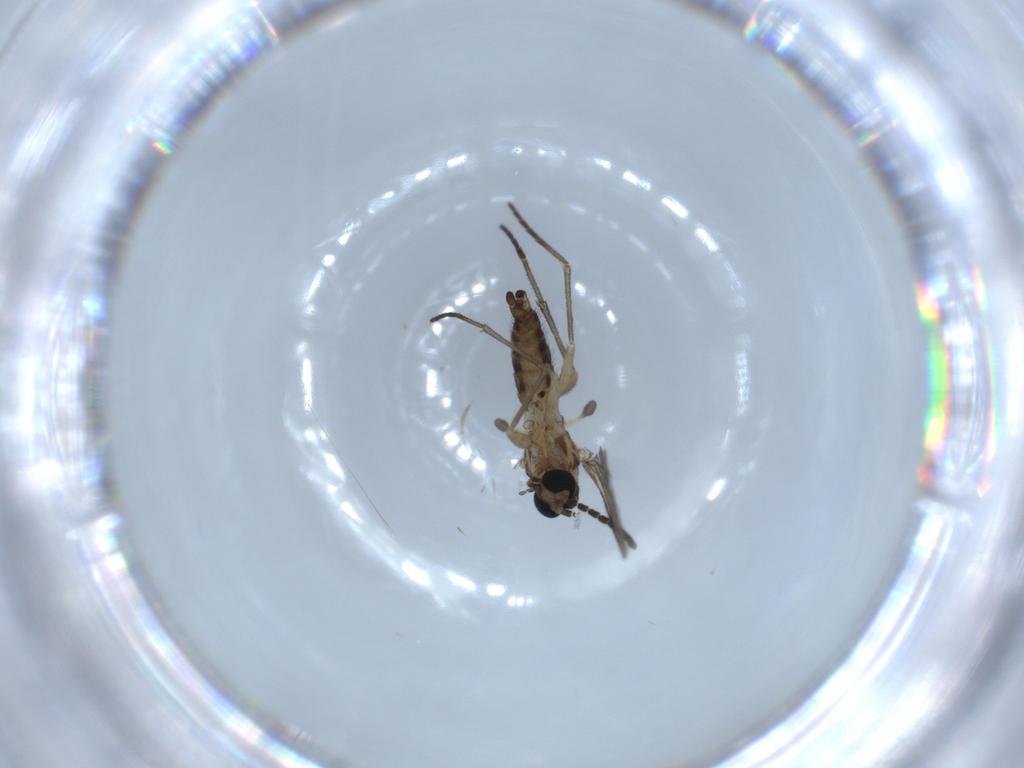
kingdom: Animalia
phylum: Arthropoda
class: Insecta
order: Diptera
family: Sciaridae
